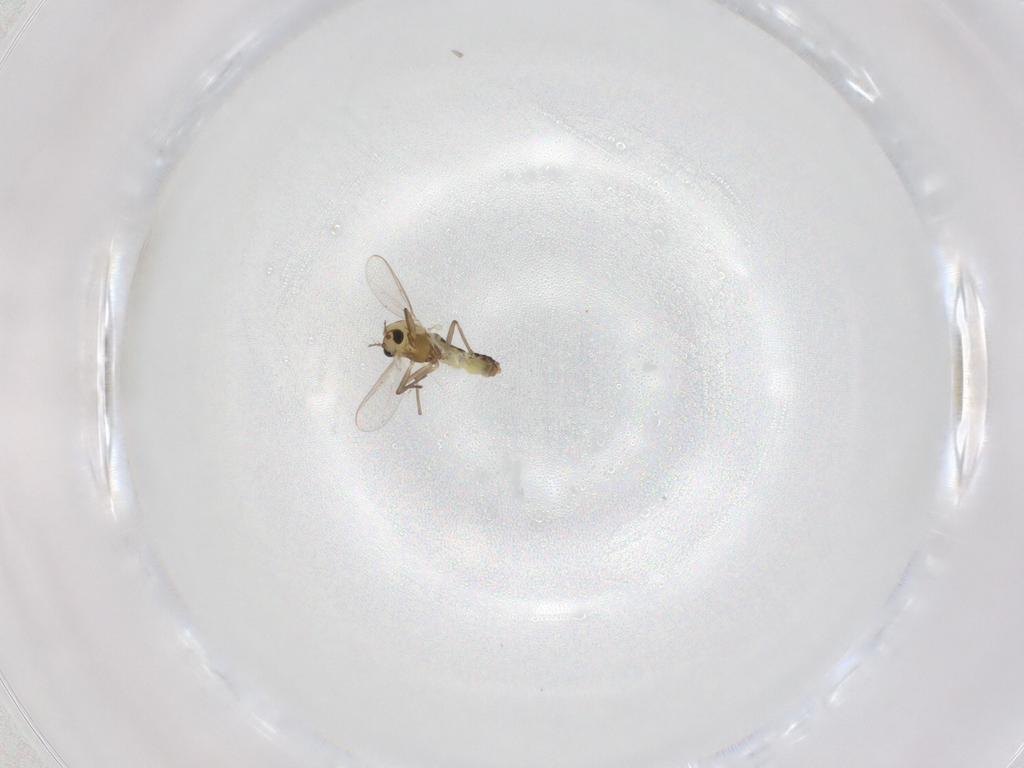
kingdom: Animalia
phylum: Arthropoda
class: Insecta
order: Diptera
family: Chironomidae
